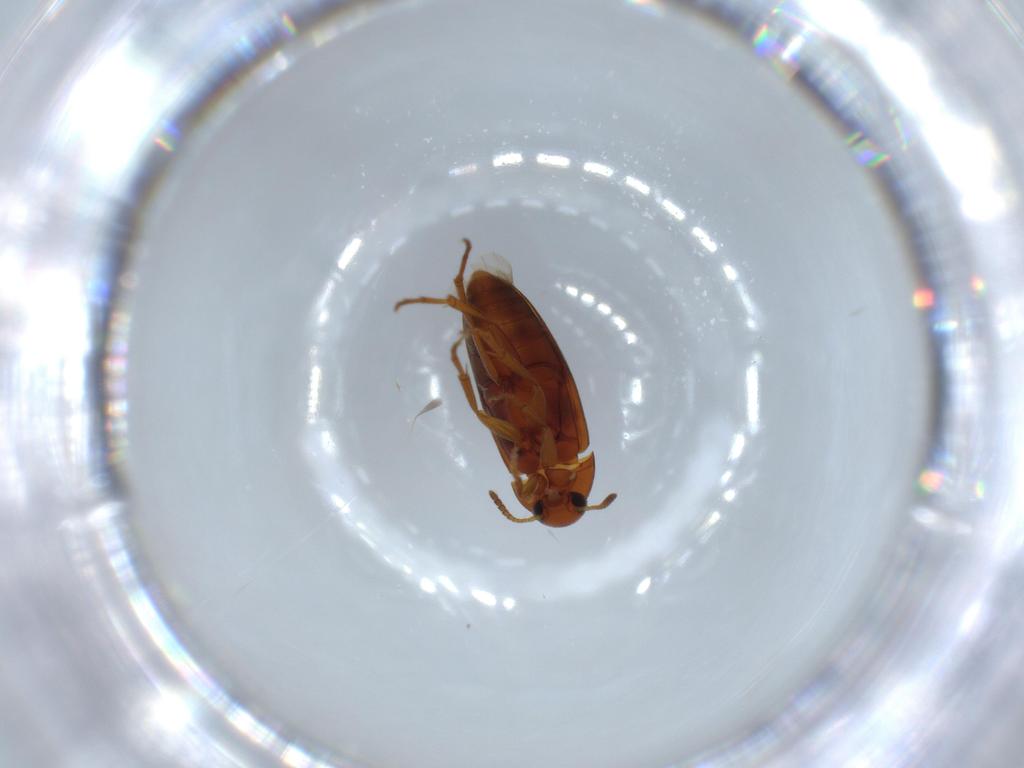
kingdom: Animalia
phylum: Arthropoda
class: Insecta
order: Coleoptera
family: Scraptiidae
